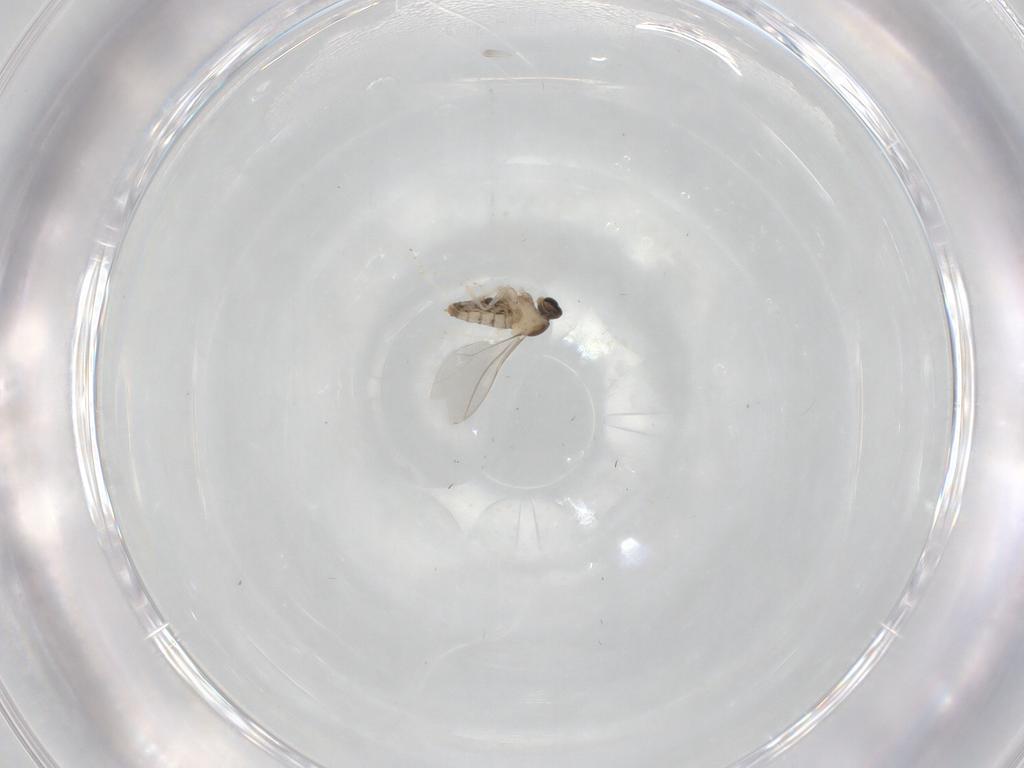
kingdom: Animalia
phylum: Arthropoda
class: Insecta
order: Diptera
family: Cecidomyiidae
